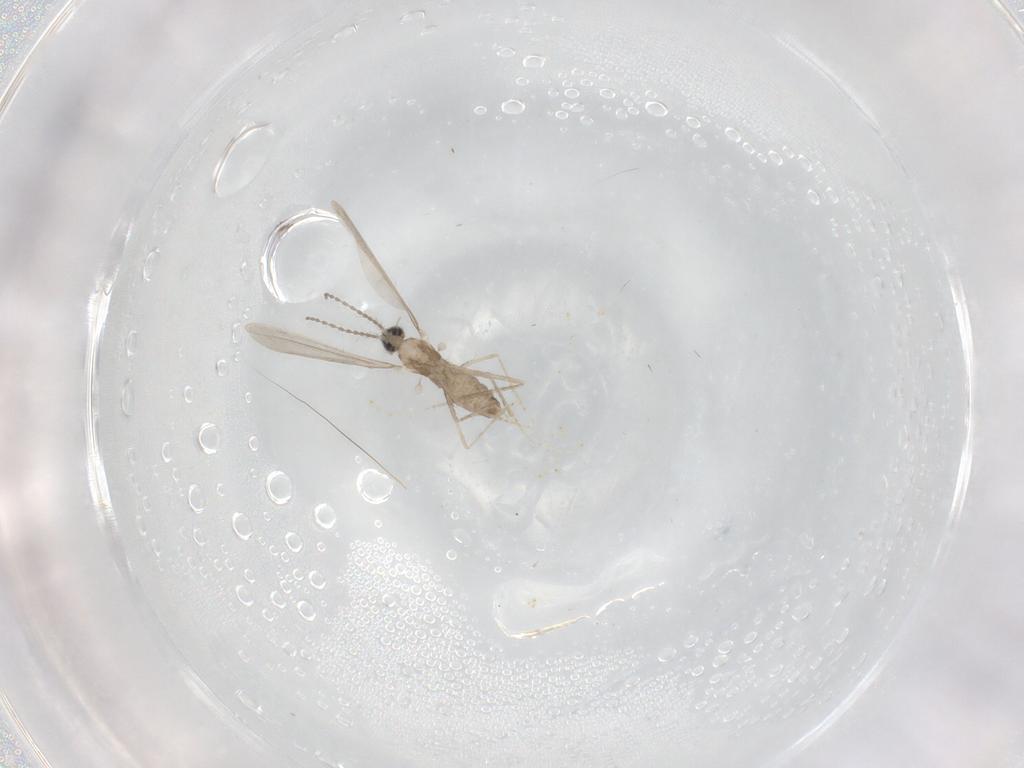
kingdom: Animalia
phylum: Arthropoda
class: Insecta
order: Diptera
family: Cecidomyiidae
